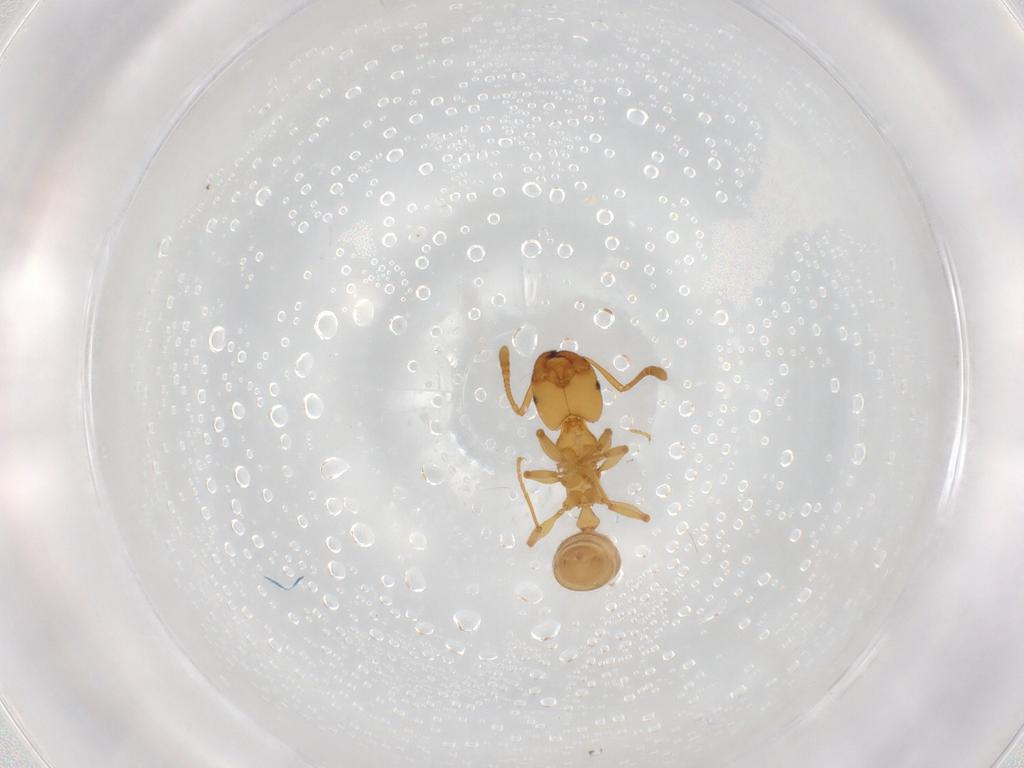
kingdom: Animalia
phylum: Arthropoda
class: Insecta
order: Hymenoptera
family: Formicidae
